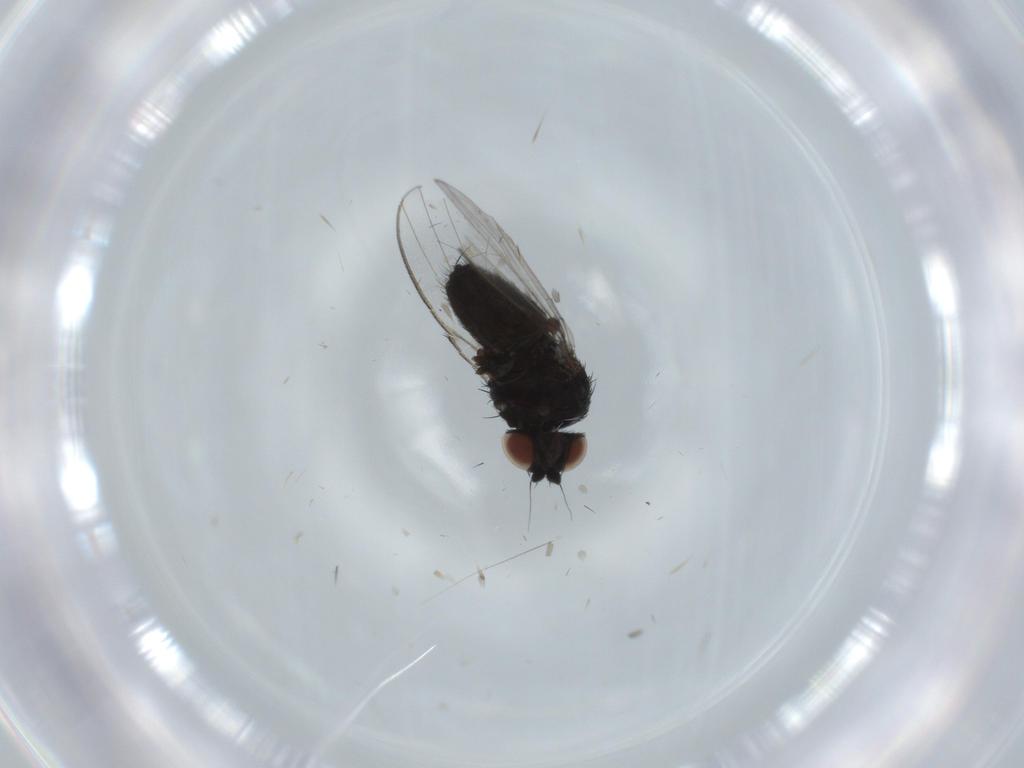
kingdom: Animalia
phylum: Arthropoda
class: Insecta
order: Diptera
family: Milichiidae
